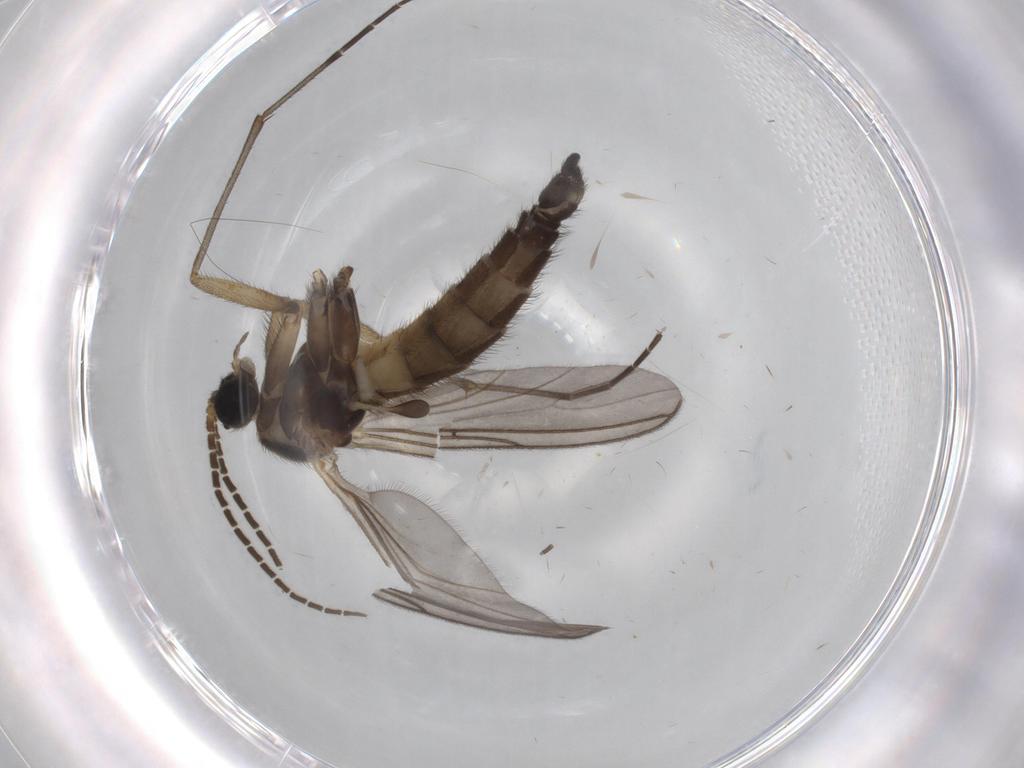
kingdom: Animalia
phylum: Arthropoda
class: Insecta
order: Diptera
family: Sciaridae
